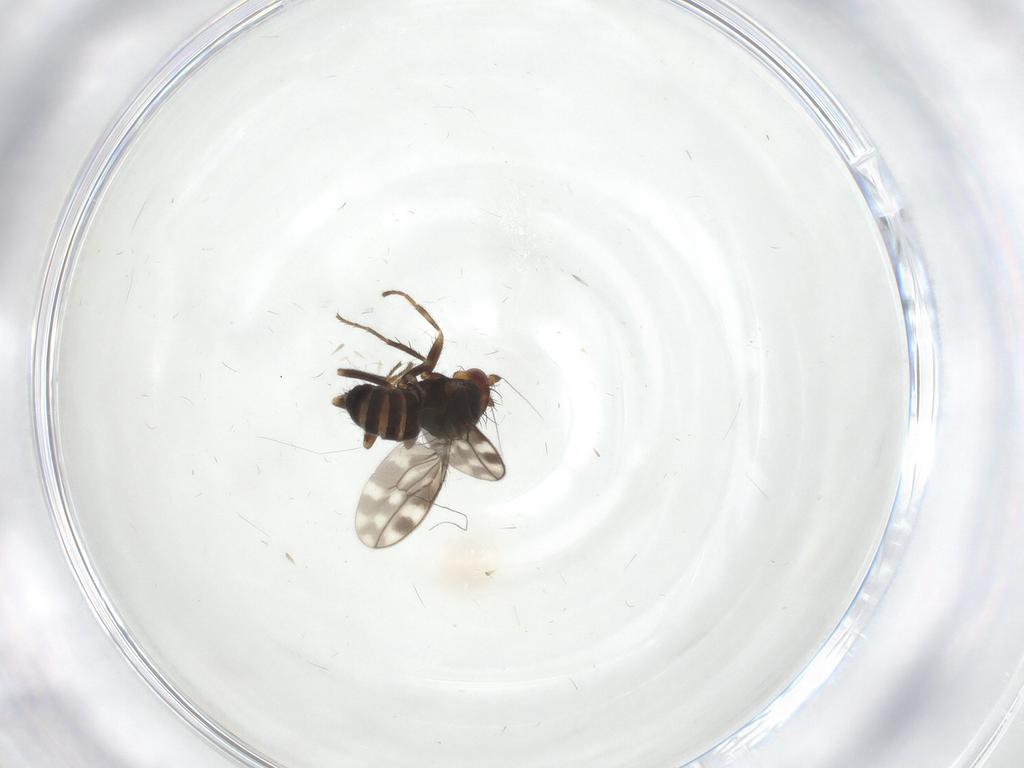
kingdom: Animalia
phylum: Arthropoda
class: Insecta
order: Diptera
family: Sphaeroceridae
